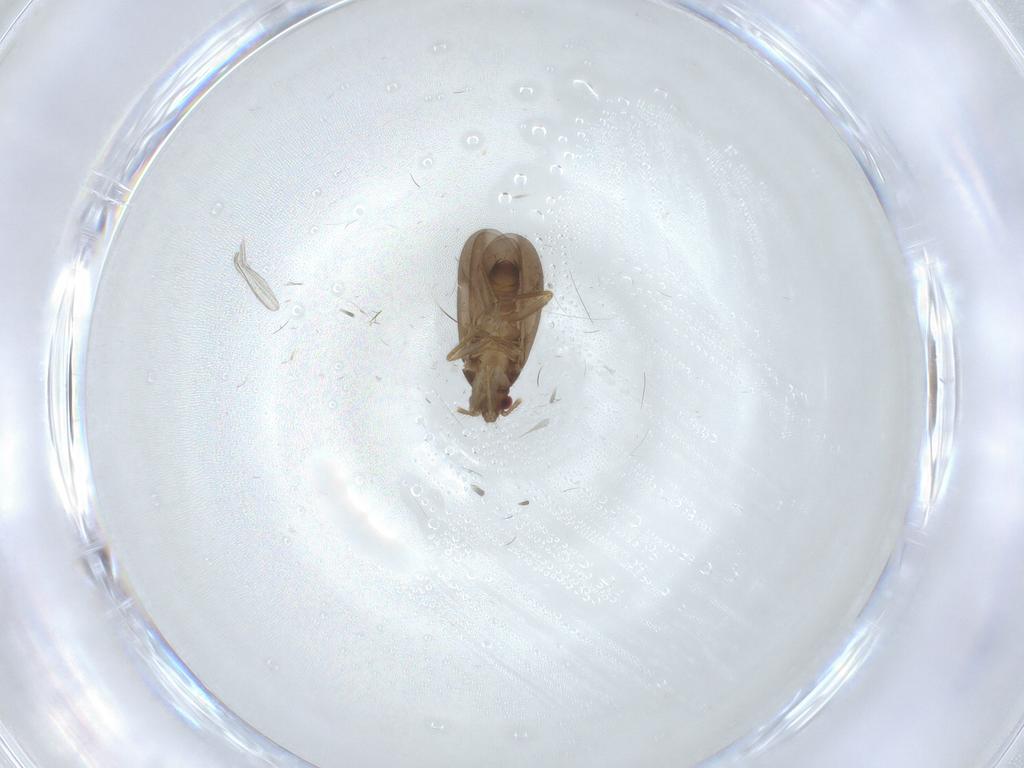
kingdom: Animalia
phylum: Arthropoda
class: Insecta
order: Hemiptera
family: Ceratocombidae
